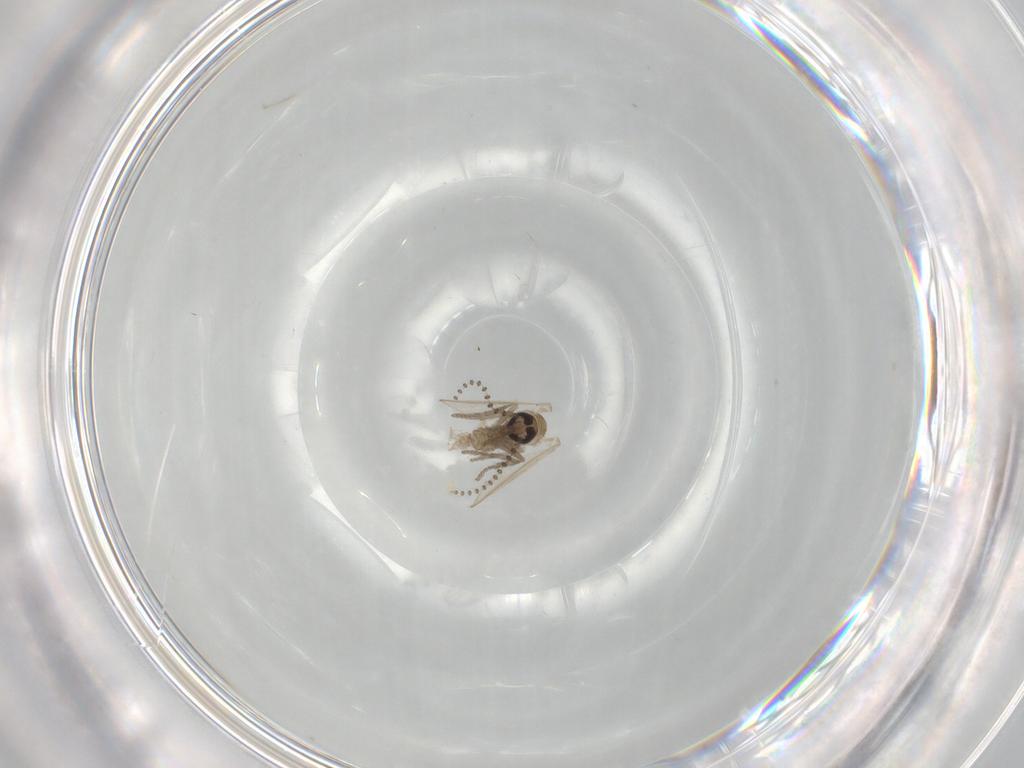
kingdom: Animalia
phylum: Arthropoda
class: Insecta
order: Diptera
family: Psychodidae
